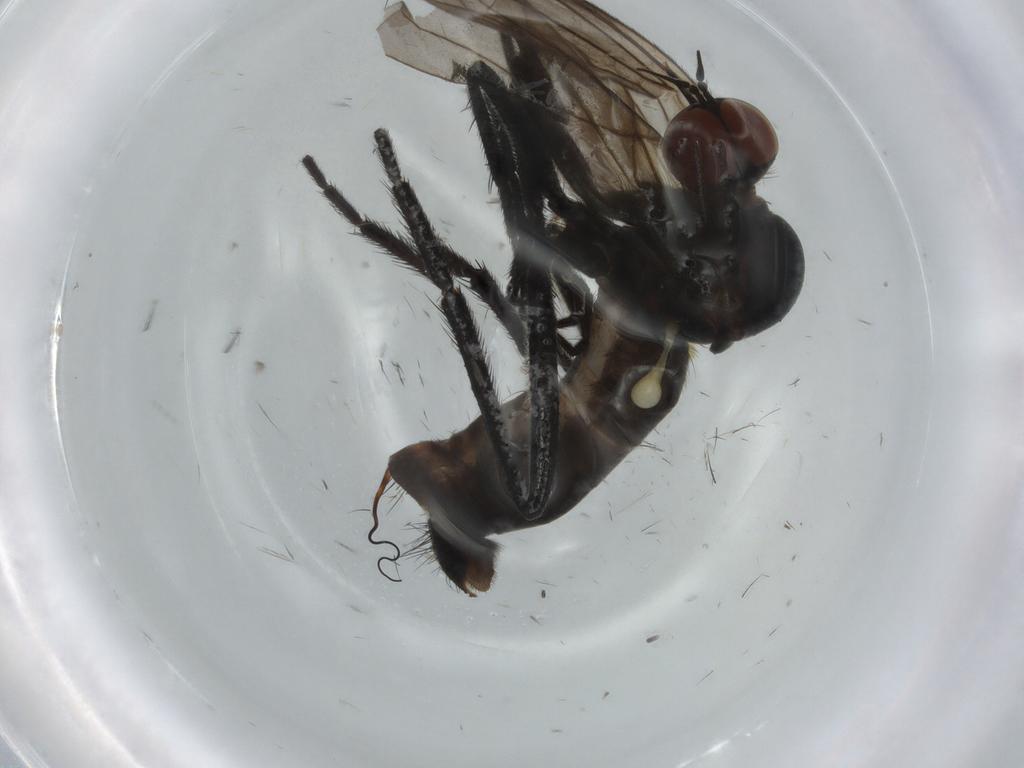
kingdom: Animalia
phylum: Arthropoda
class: Insecta
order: Diptera
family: Empididae
